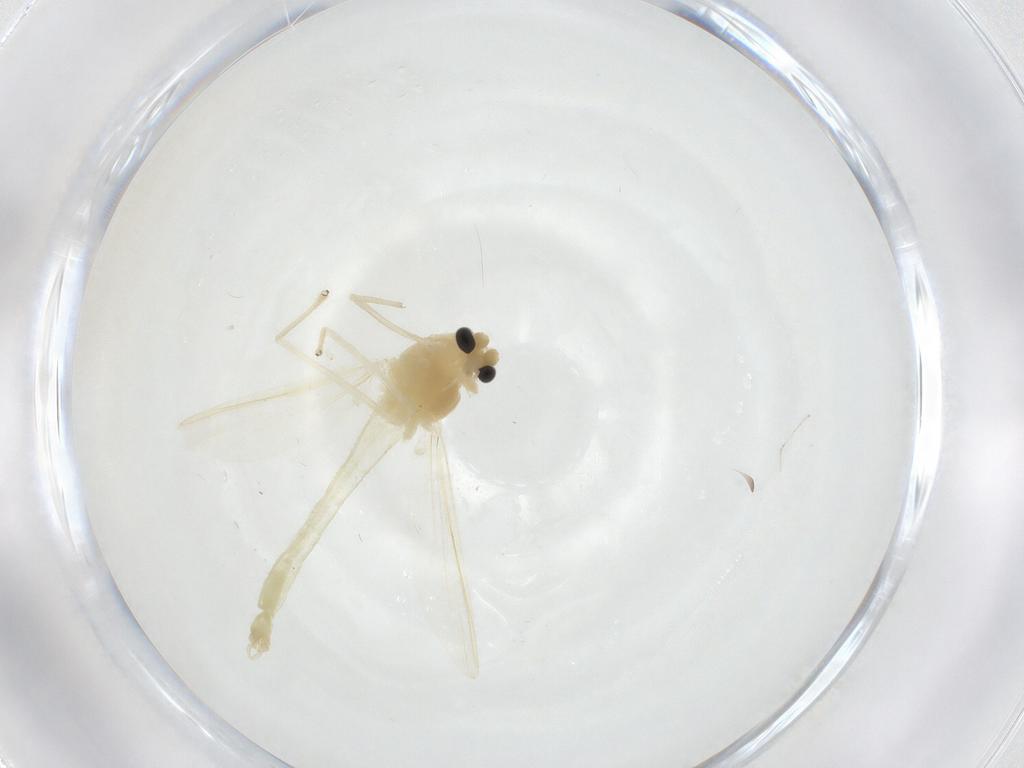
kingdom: Animalia
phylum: Arthropoda
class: Insecta
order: Diptera
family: Chironomidae
